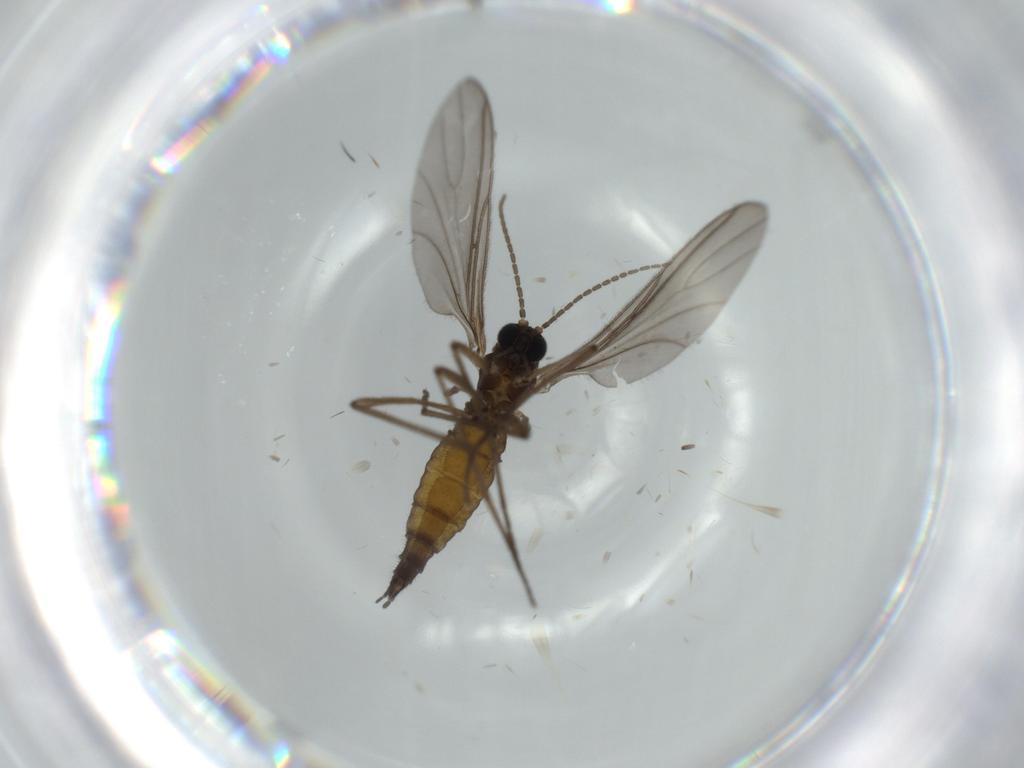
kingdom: Animalia
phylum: Arthropoda
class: Insecta
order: Diptera
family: Sciaridae
